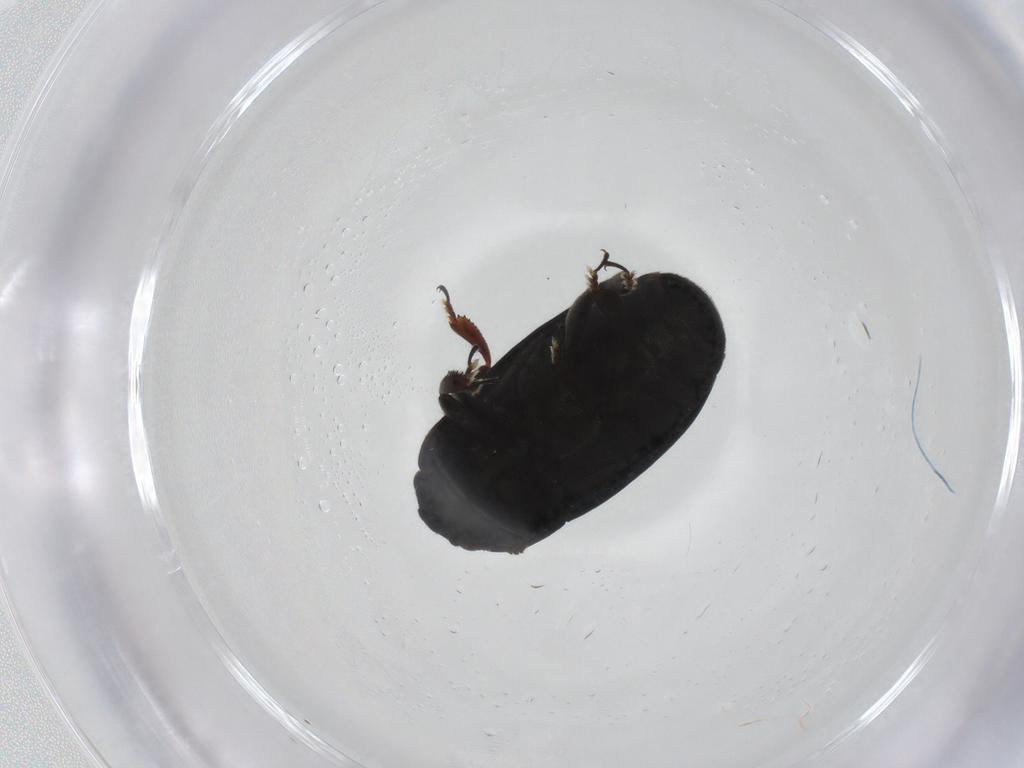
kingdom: Animalia
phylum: Arthropoda
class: Insecta
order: Coleoptera
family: Nitidulidae
